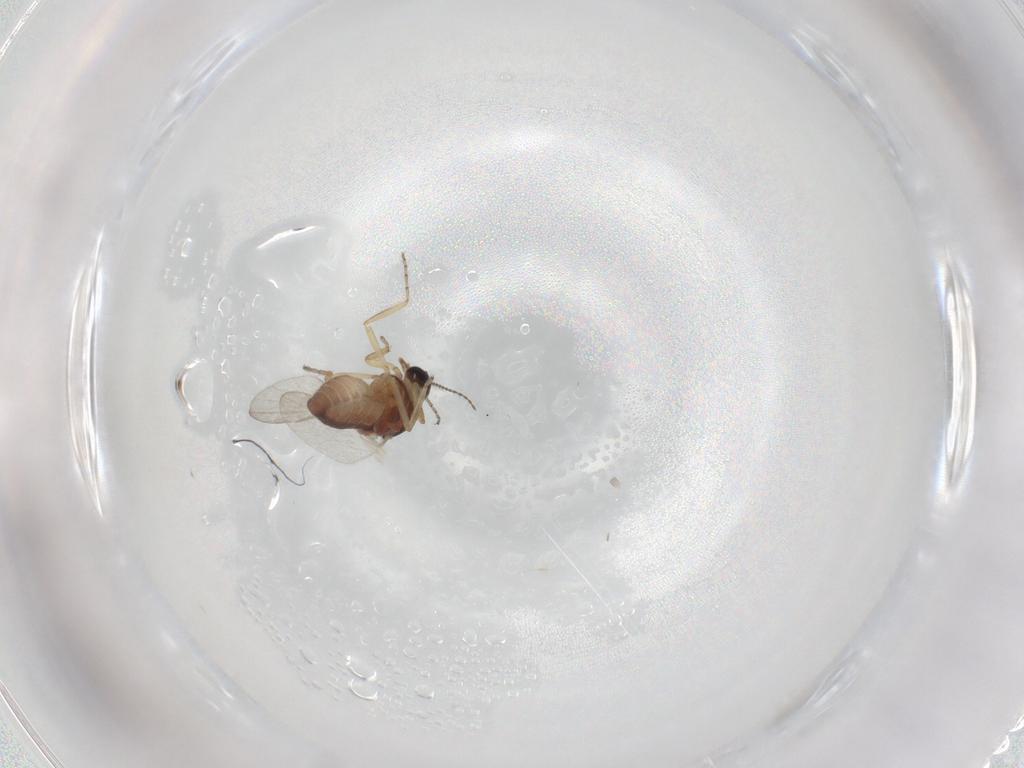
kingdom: Animalia
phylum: Arthropoda
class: Insecta
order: Diptera
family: Ceratopogonidae
